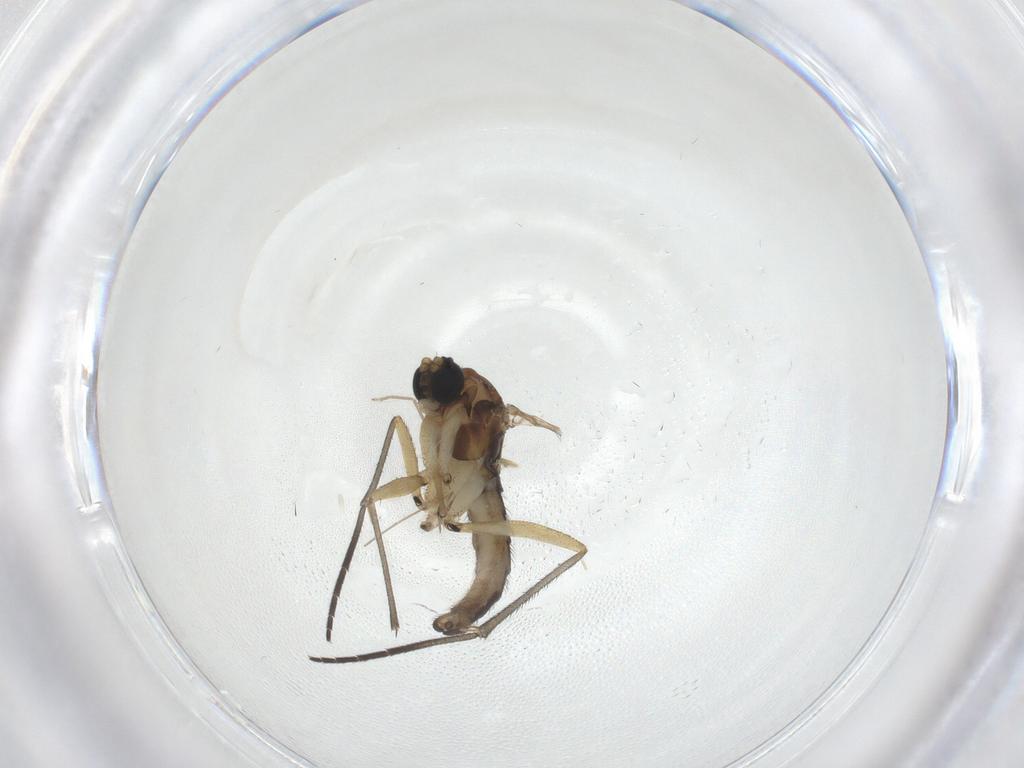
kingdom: Animalia
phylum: Arthropoda
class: Insecta
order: Diptera
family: Sciaridae
